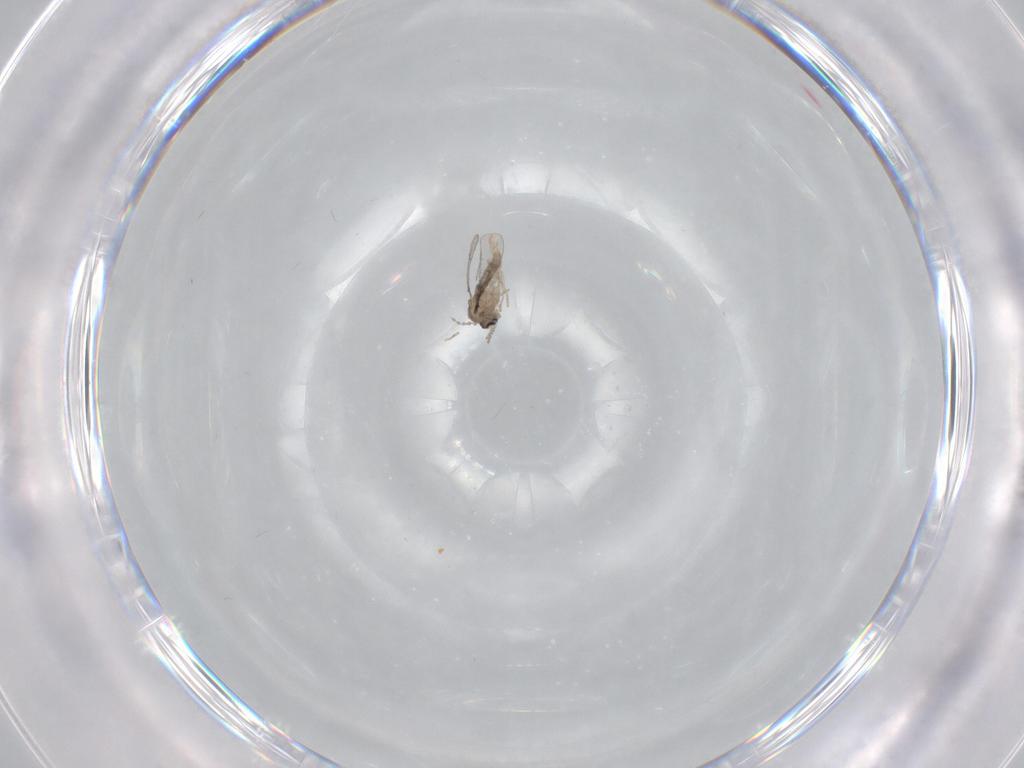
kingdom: Animalia
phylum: Arthropoda
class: Insecta
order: Diptera
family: Cecidomyiidae
